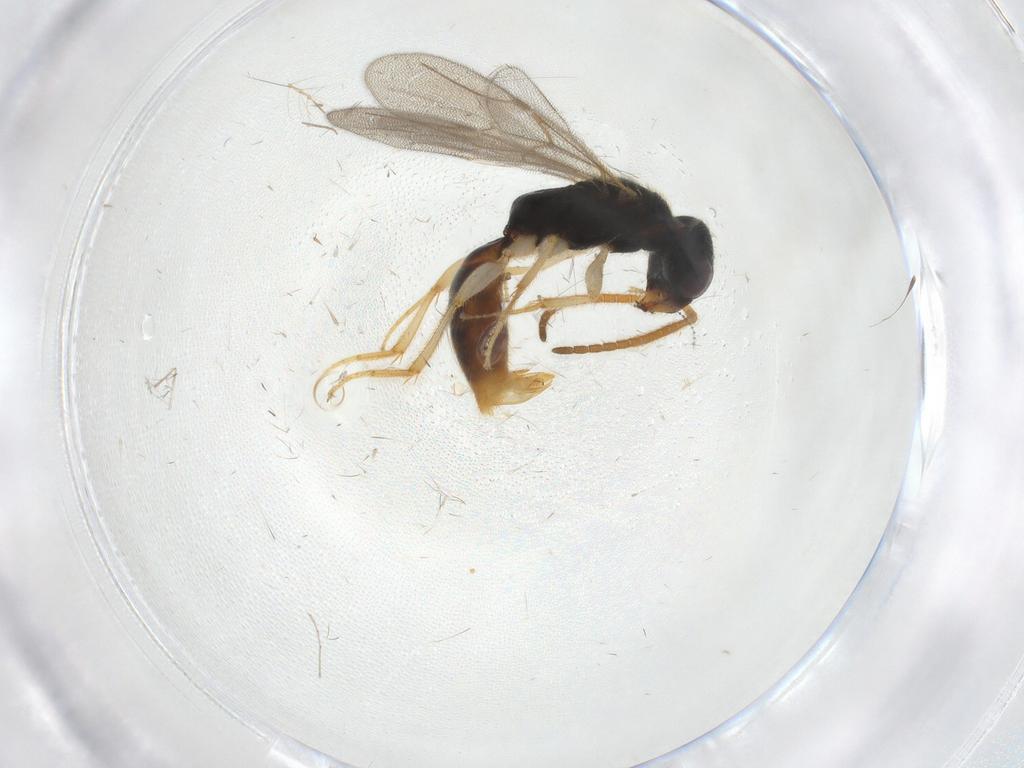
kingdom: Animalia
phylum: Arthropoda
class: Insecta
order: Hymenoptera
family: Bethylidae
